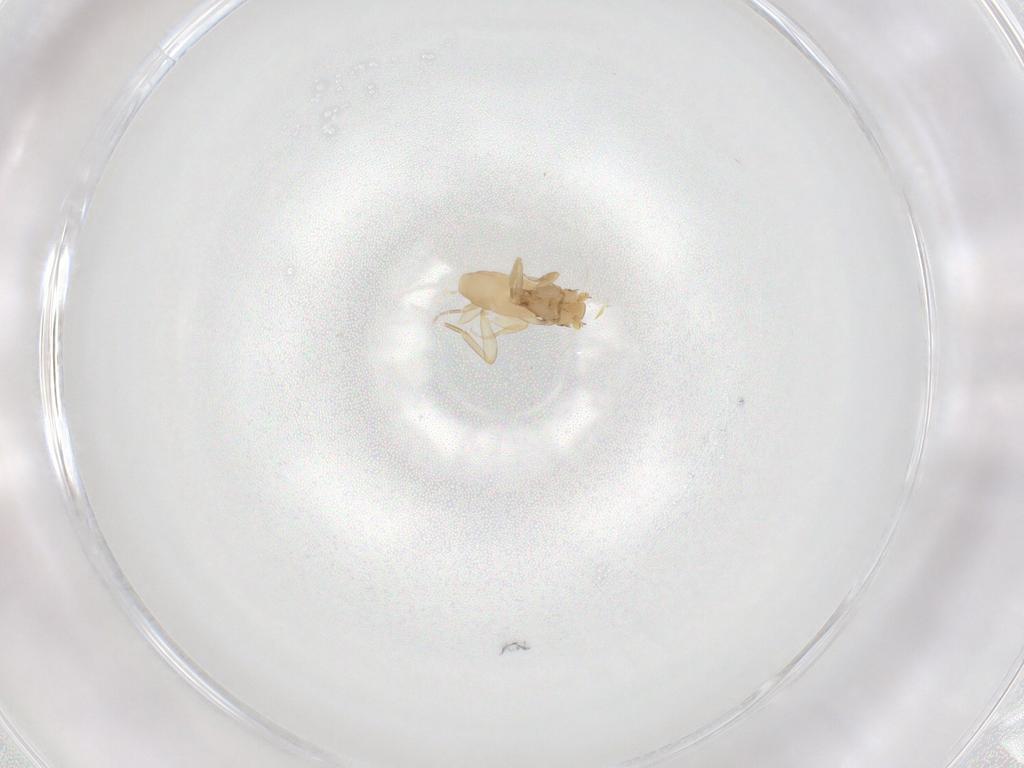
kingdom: Animalia
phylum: Arthropoda
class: Insecta
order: Diptera
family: Phoridae
